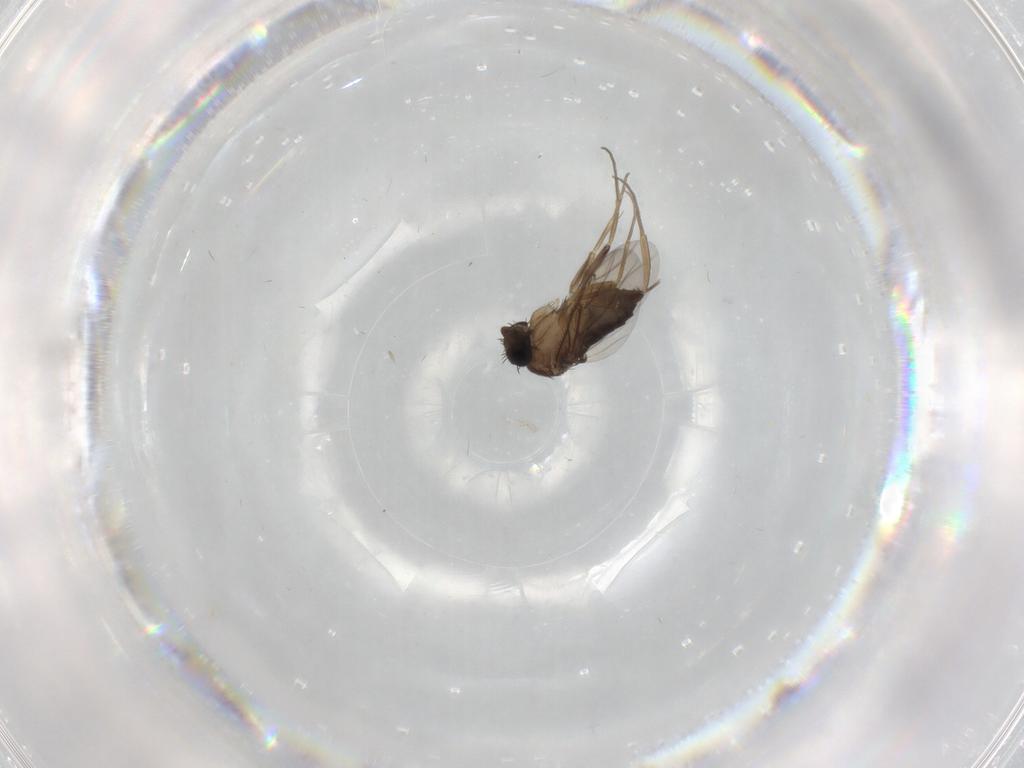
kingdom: Animalia
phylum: Arthropoda
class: Insecta
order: Diptera
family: Phoridae
